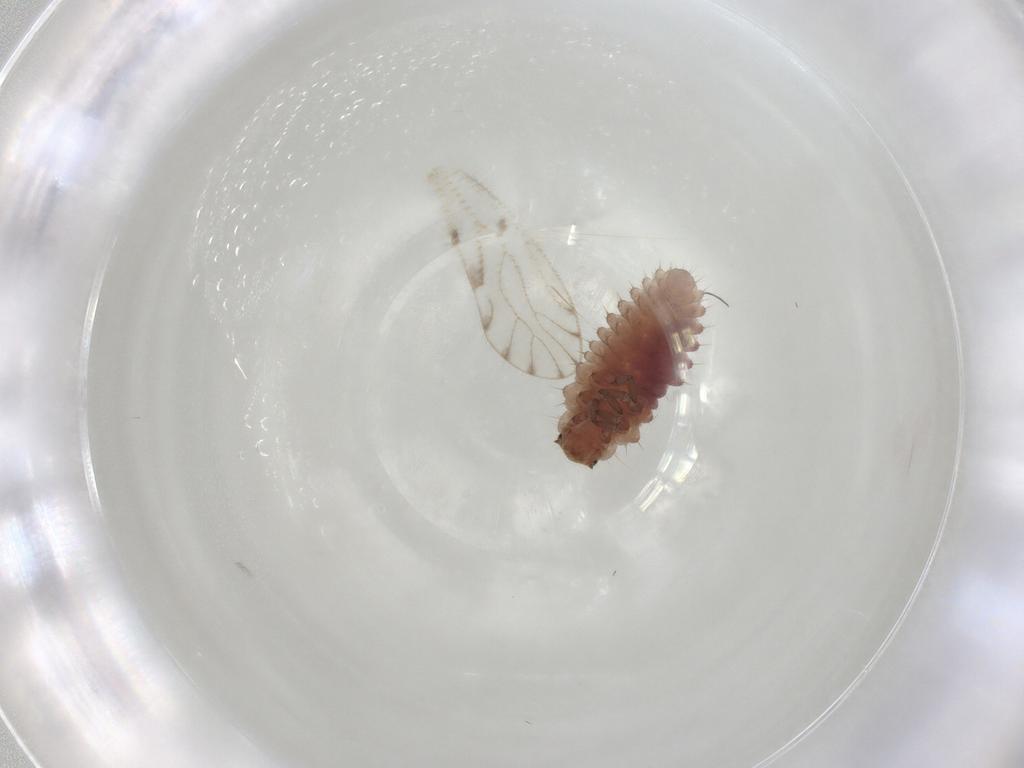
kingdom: Animalia
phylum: Arthropoda
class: Insecta
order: Coleoptera
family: Coccinellidae
